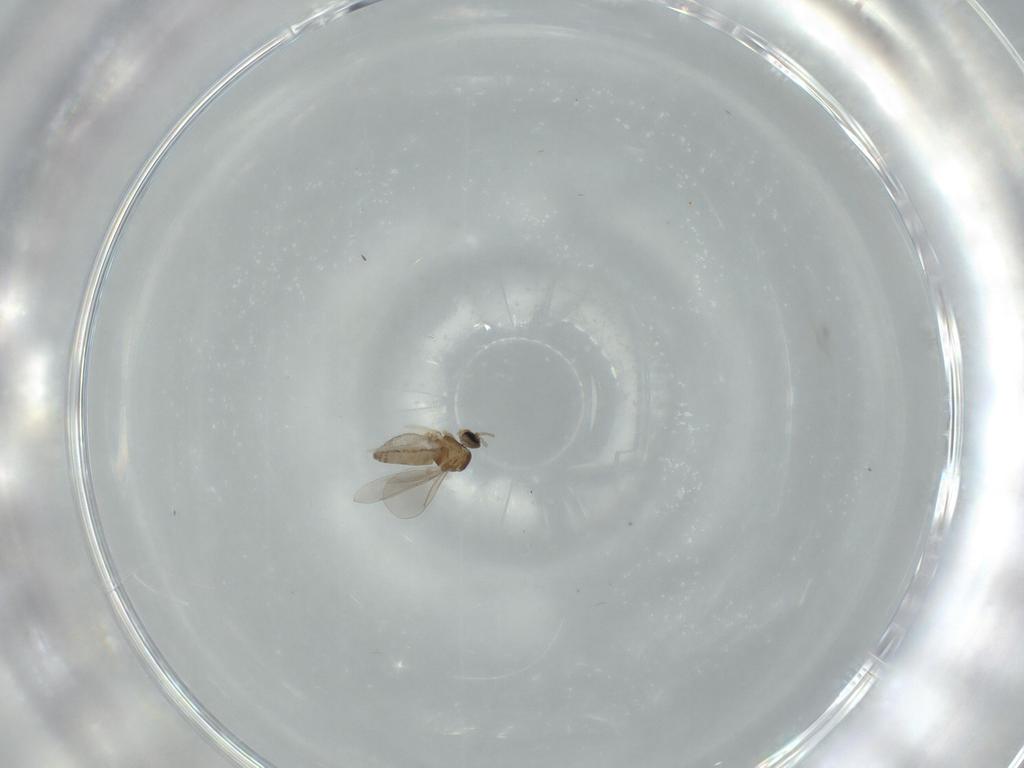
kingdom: Animalia
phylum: Arthropoda
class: Insecta
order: Diptera
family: Cecidomyiidae
